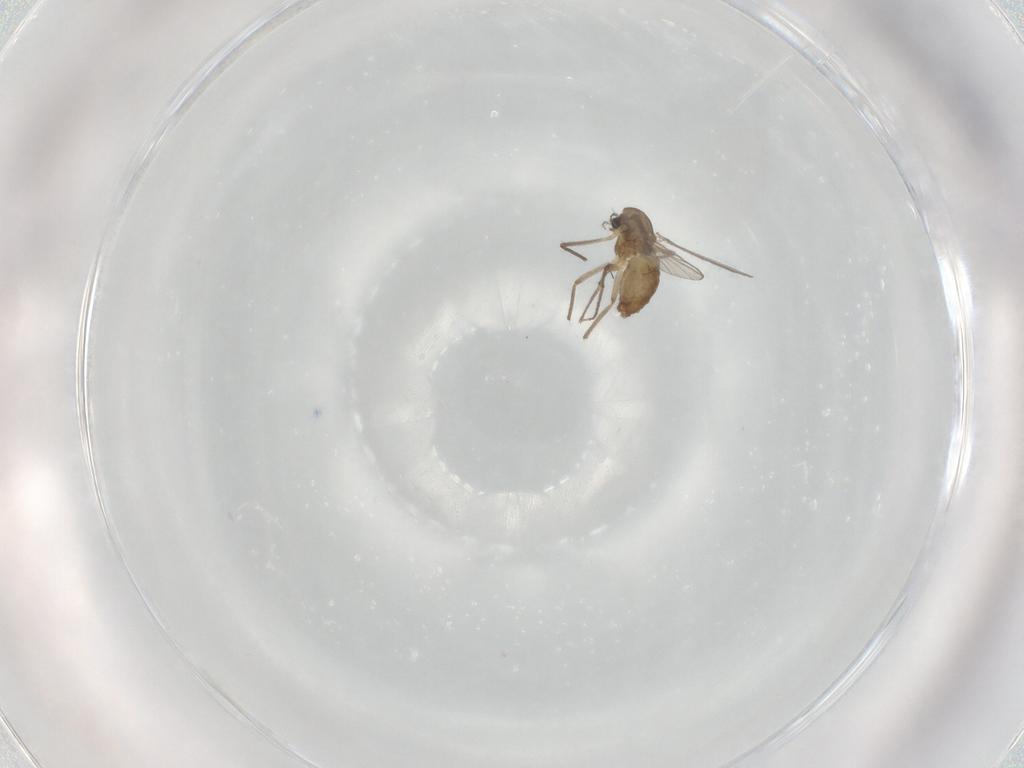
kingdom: Animalia
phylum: Arthropoda
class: Insecta
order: Diptera
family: Chironomidae
